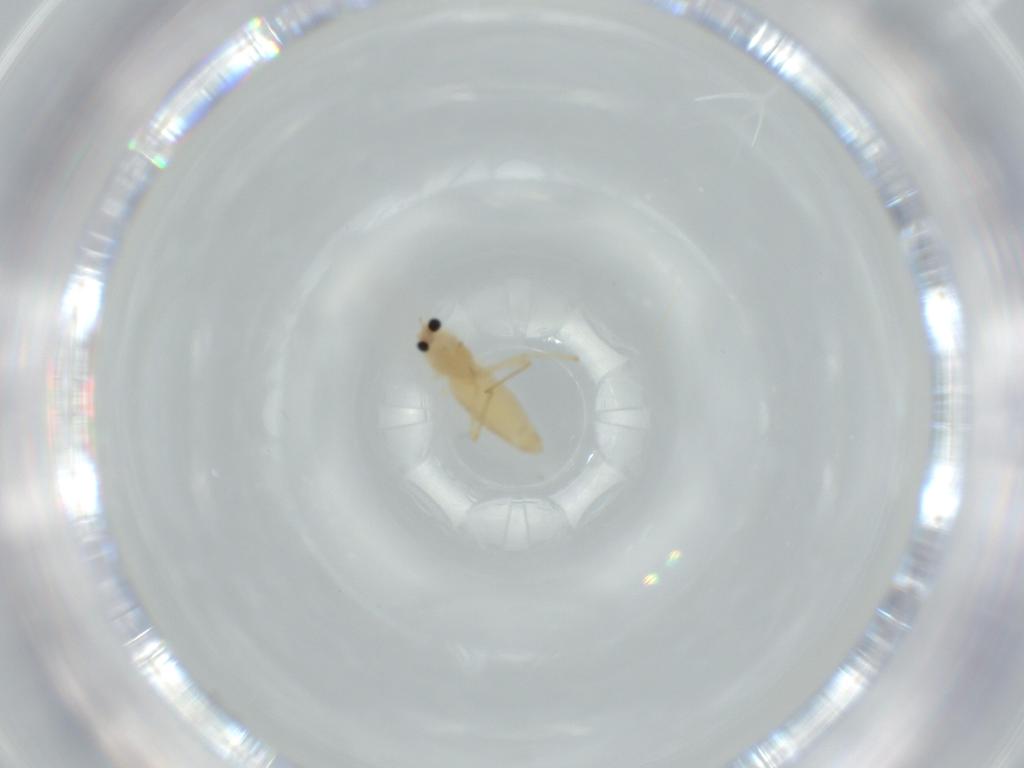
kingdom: Animalia
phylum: Arthropoda
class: Insecta
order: Diptera
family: Chironomidae
